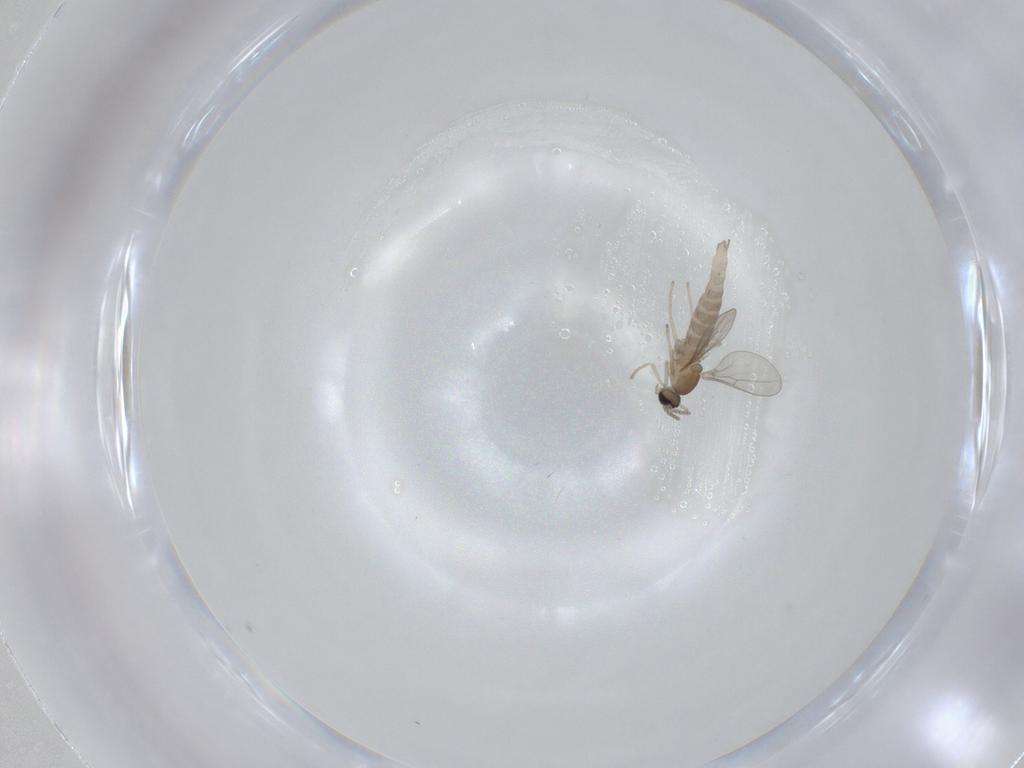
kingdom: Animalia
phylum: Arthropoda
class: Insecta
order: Diptera
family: Cecidomyiidae
